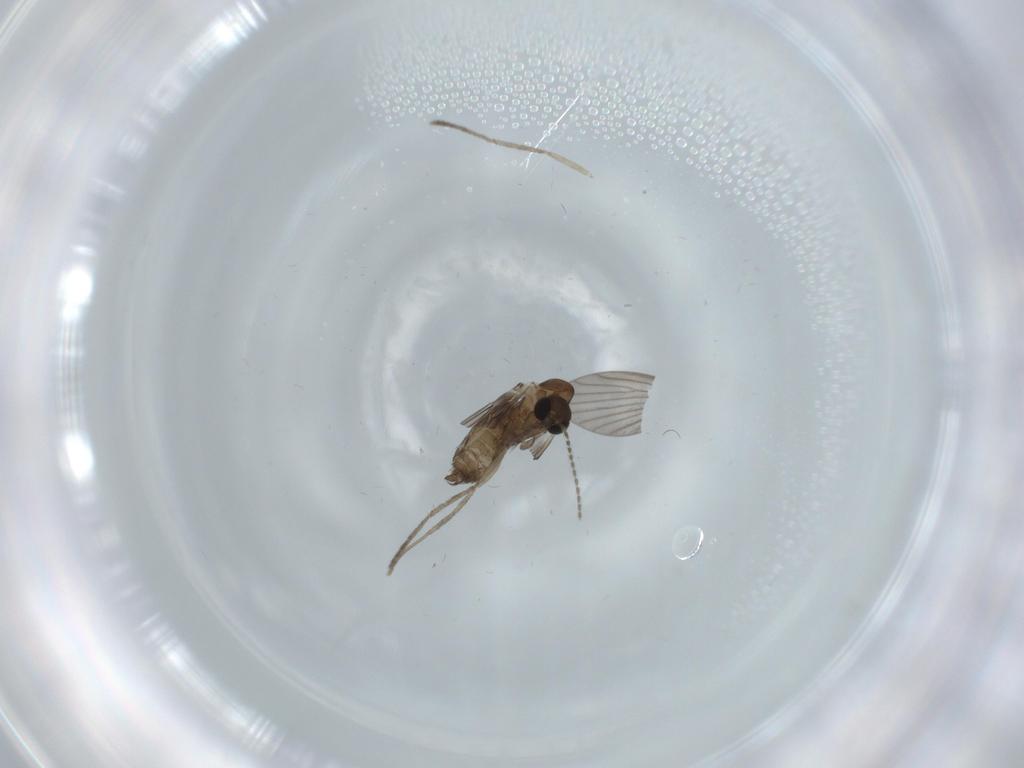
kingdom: Animalia
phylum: Arthropoda
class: Insecta
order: Diptera
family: Psychodidae
